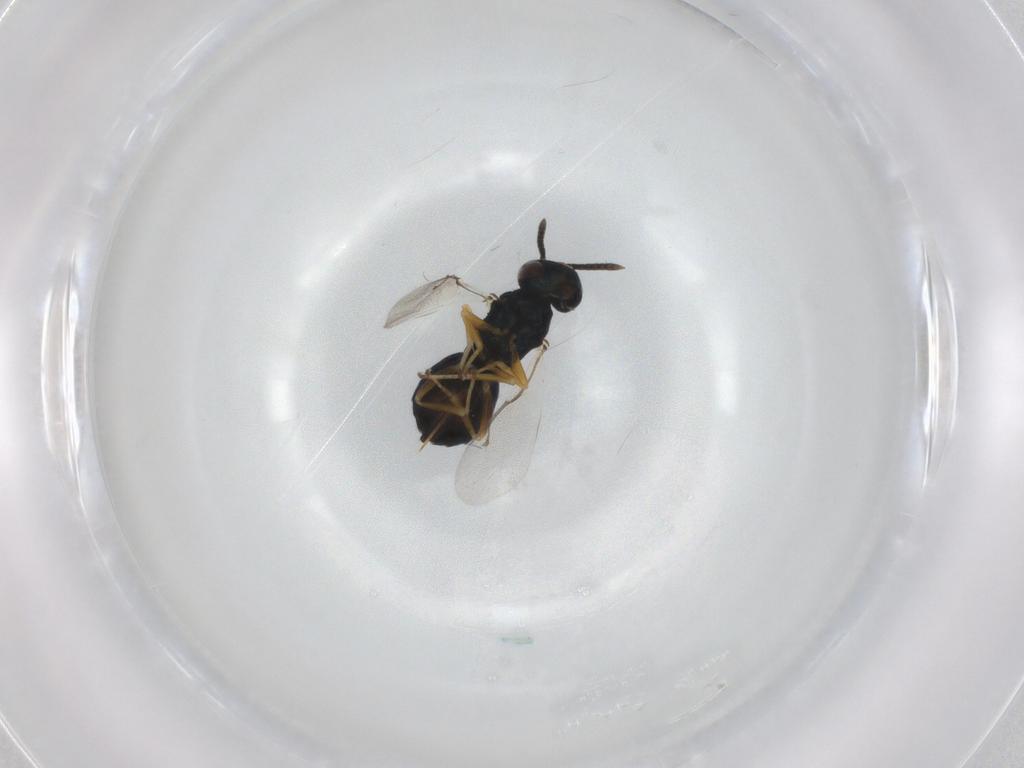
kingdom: Animalia
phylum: Arthropoda
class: Insecta
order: Hymenoptera
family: Pteromalidae
